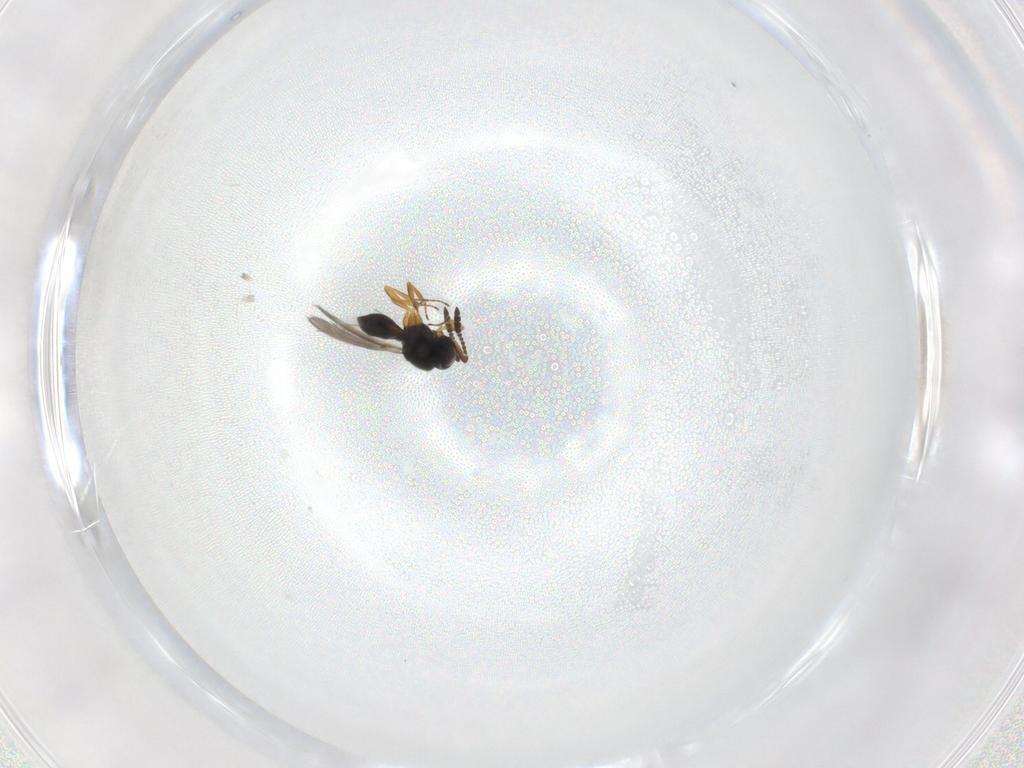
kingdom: Animalia
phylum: Arthropoda
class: Insecta
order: Hymenoptera
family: Scelionidae
